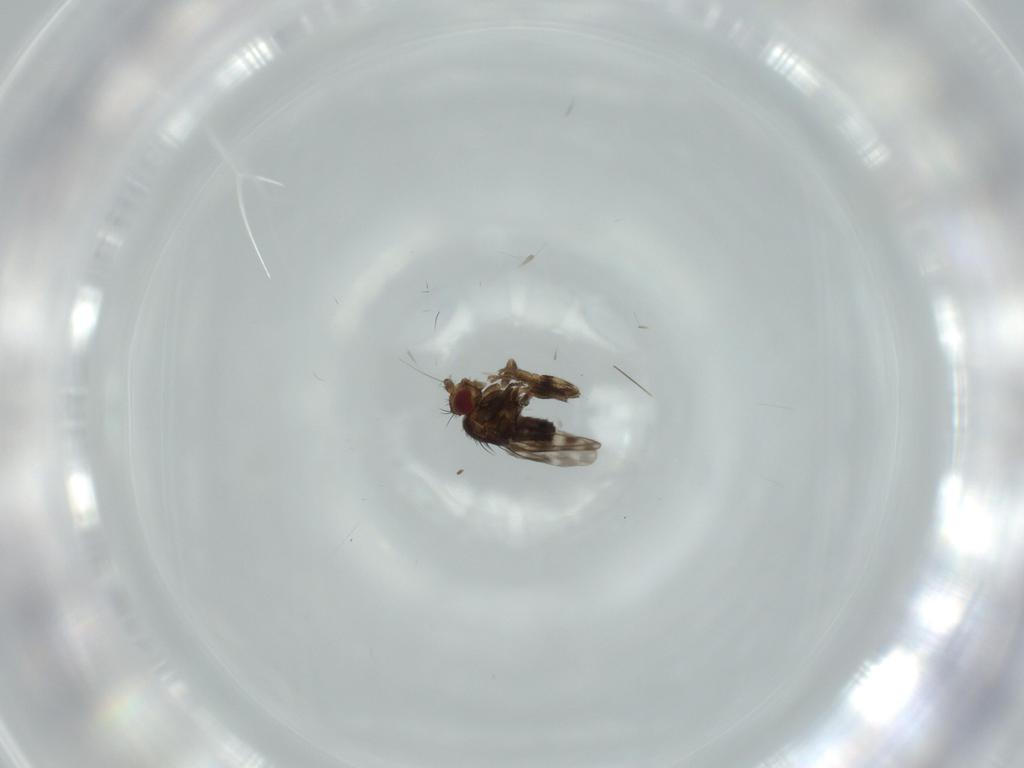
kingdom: Animalia
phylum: Arthropoda
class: Insecta
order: Diptera
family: Sphaeroceridae
